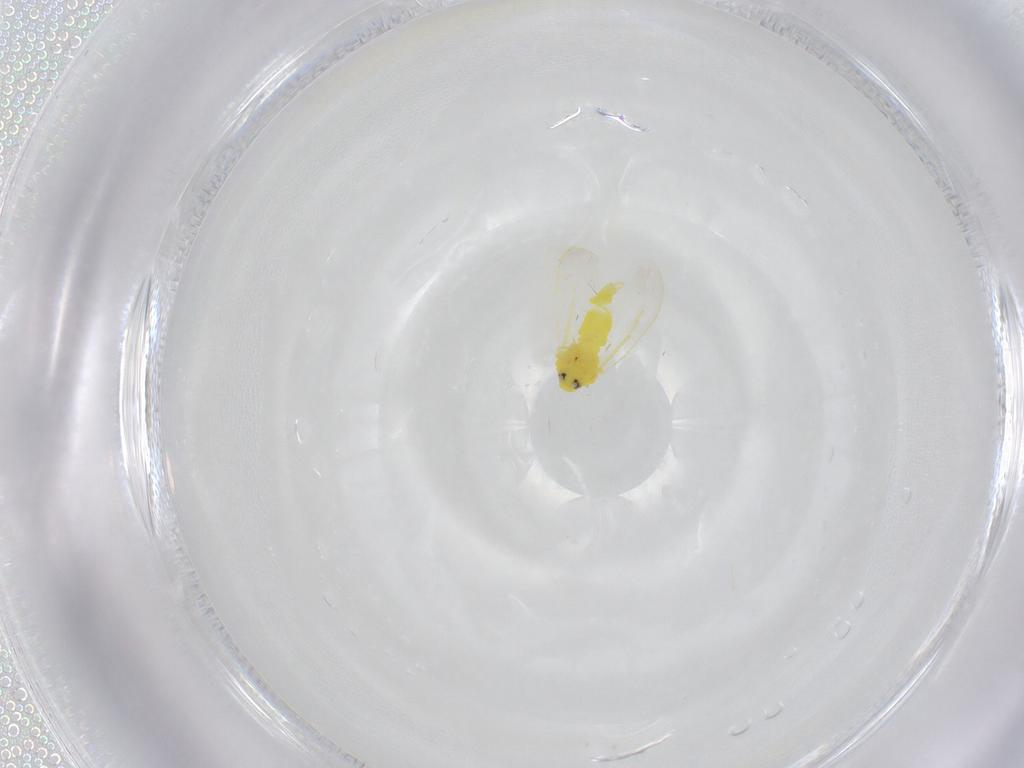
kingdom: Animalia
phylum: Arthropoda
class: Insecta
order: Hemiptera
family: Aleyrodidae
